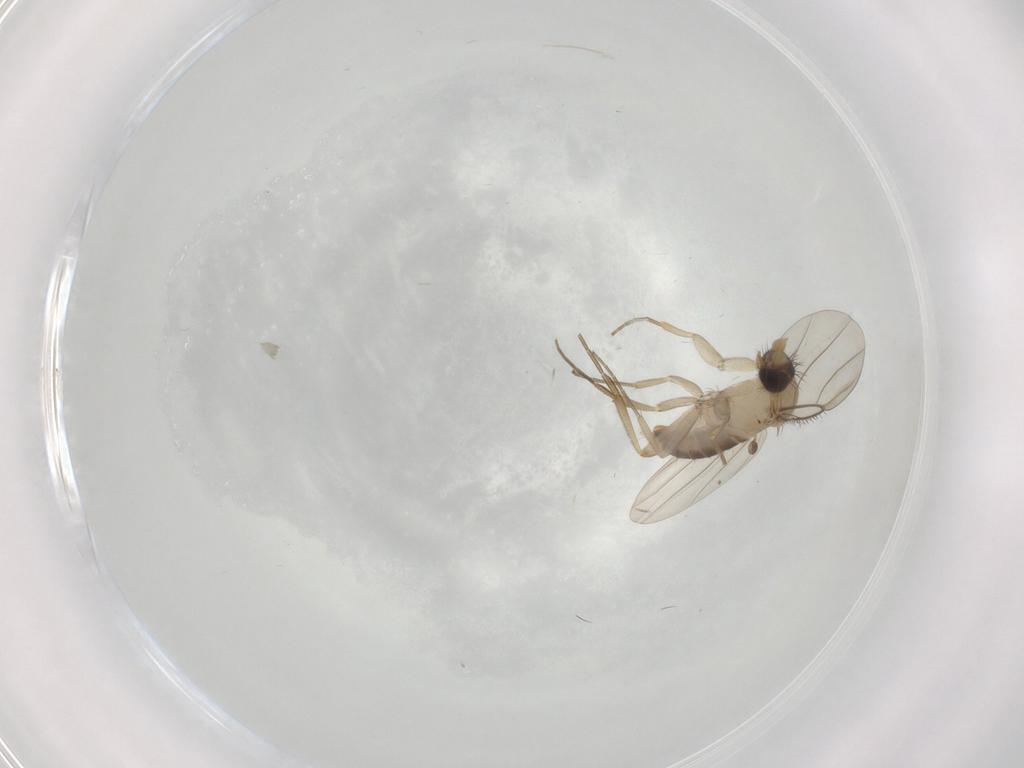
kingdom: Animalia
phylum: Arthropoda
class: Insecta
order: Diptera
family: Phoridae
